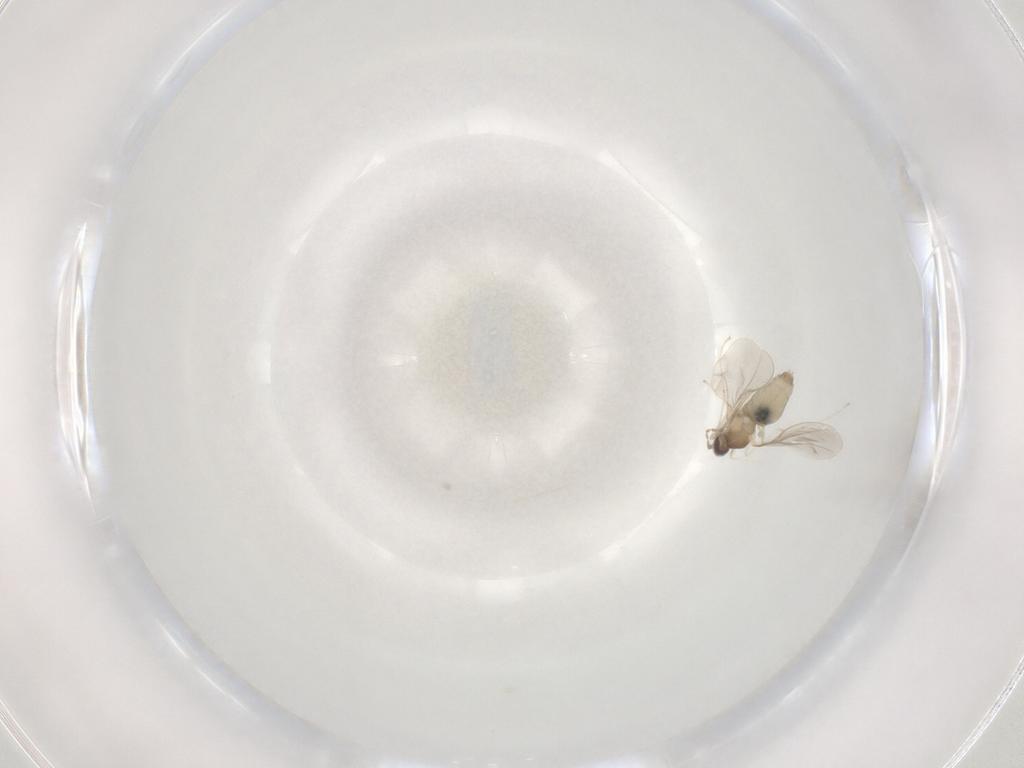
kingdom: Animalia
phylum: Arthropoda
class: Insecta
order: Diptera
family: Cecidomyiidae
